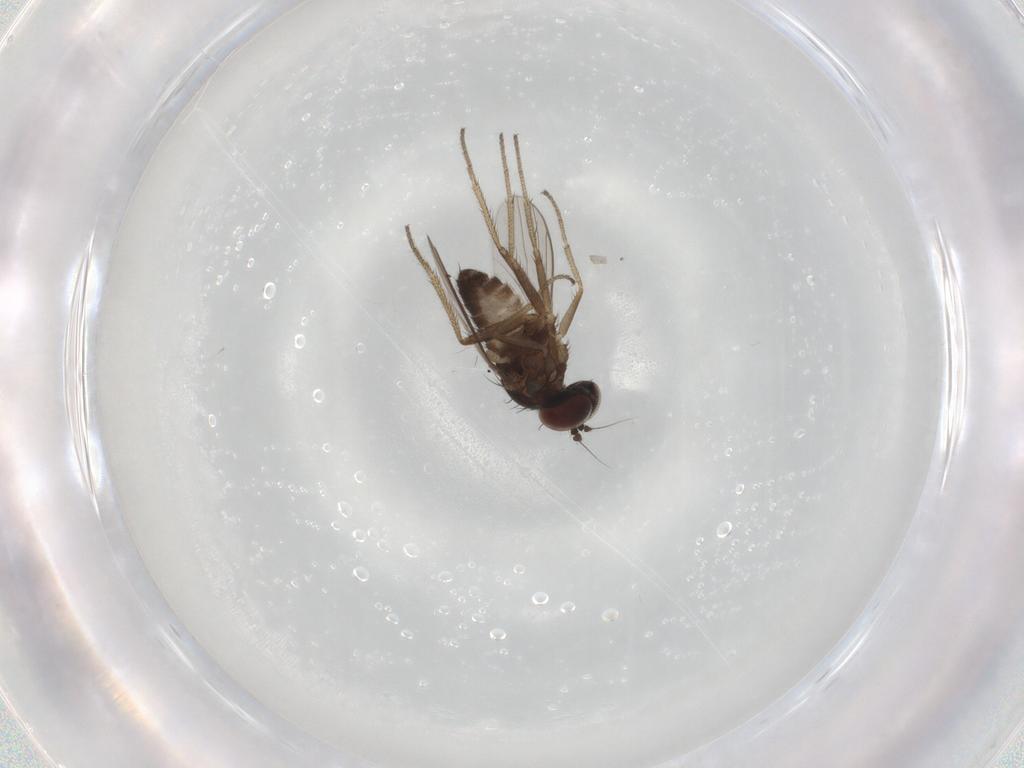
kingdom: Animalia
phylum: Arthropoda
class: Insecta
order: Diptera
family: Dolichopodidae
